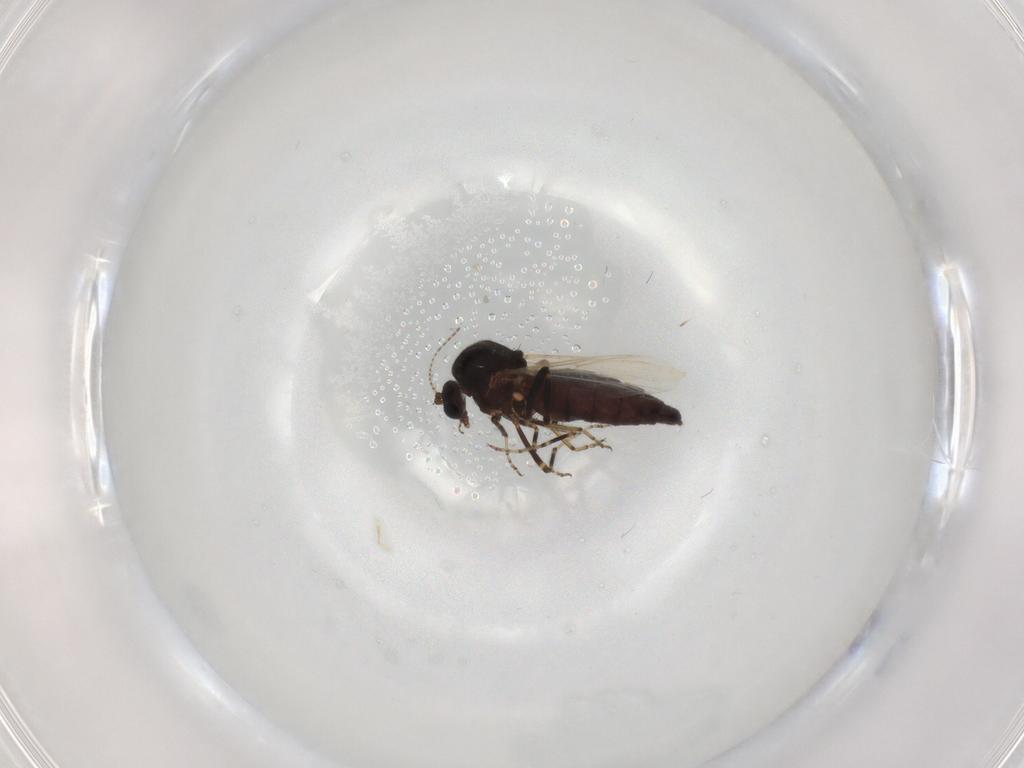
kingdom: Animalia
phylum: Arthropoda
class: Insecta
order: Diptera
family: Ceratopogonidae
